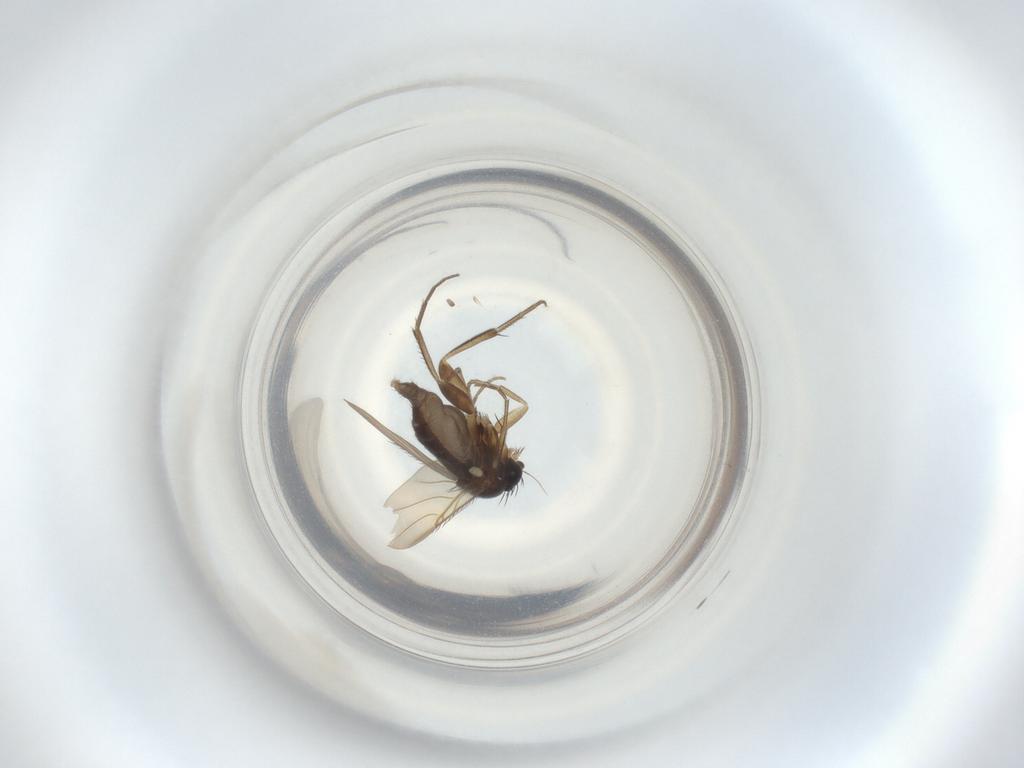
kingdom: Animalia
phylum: Arthropoda
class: Insecta
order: Diptera
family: Phoridae
